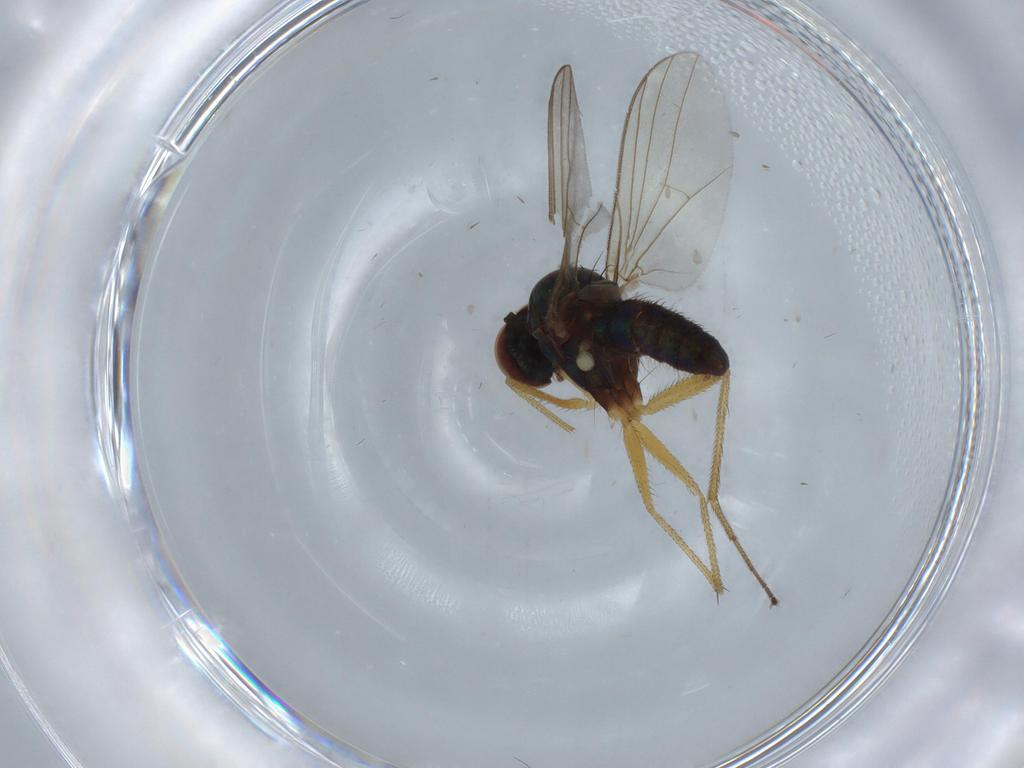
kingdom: Animalia
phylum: Arthropoda
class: Insecta
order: Diptera
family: Dolichopodidae
